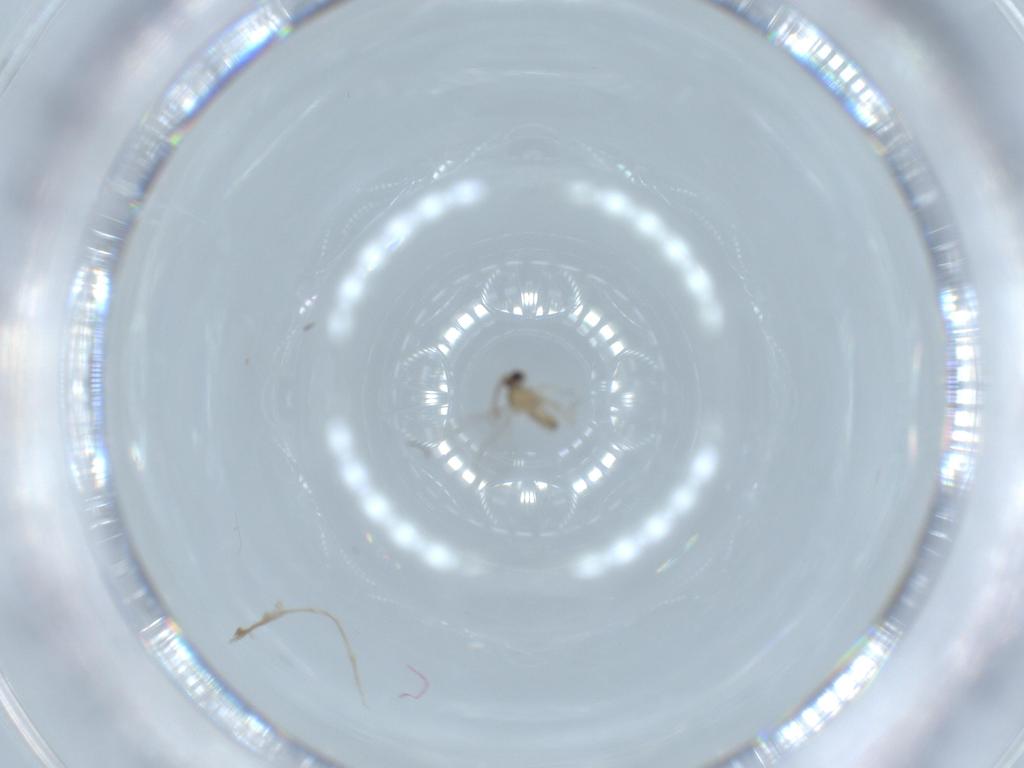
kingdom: Animalia
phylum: Arthropoda
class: Insecta
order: Diptera
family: Cecidomyiidae
